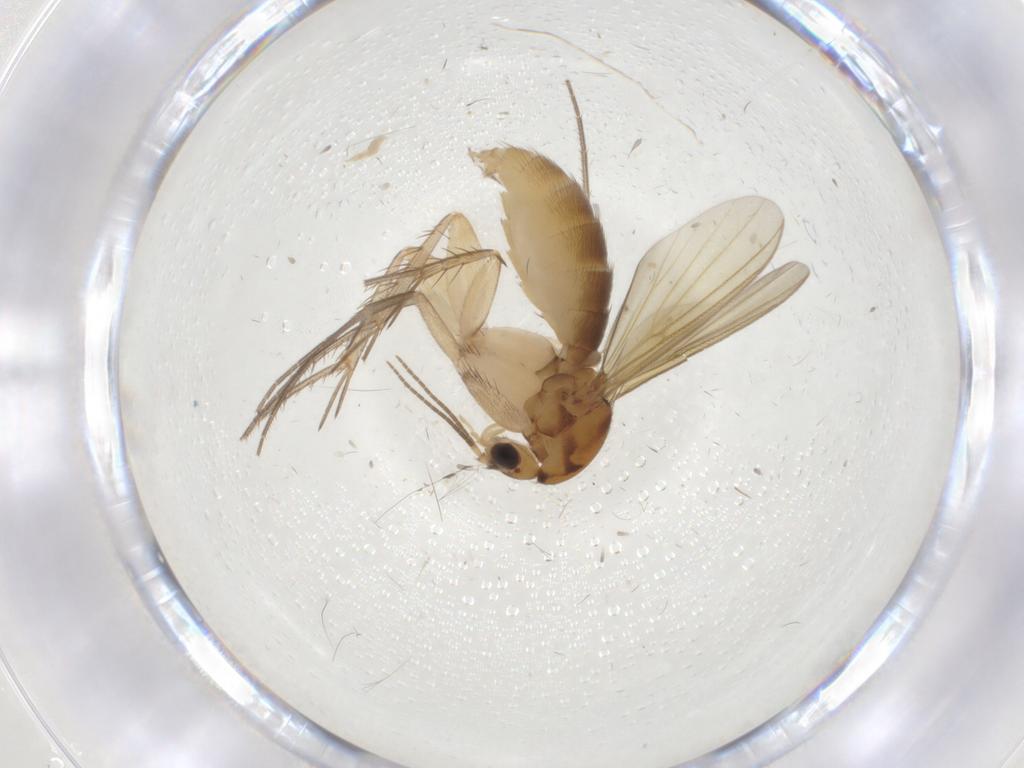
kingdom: Animalia
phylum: Arthropoda
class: Insecta
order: Diptera
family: Mycetophilidae
